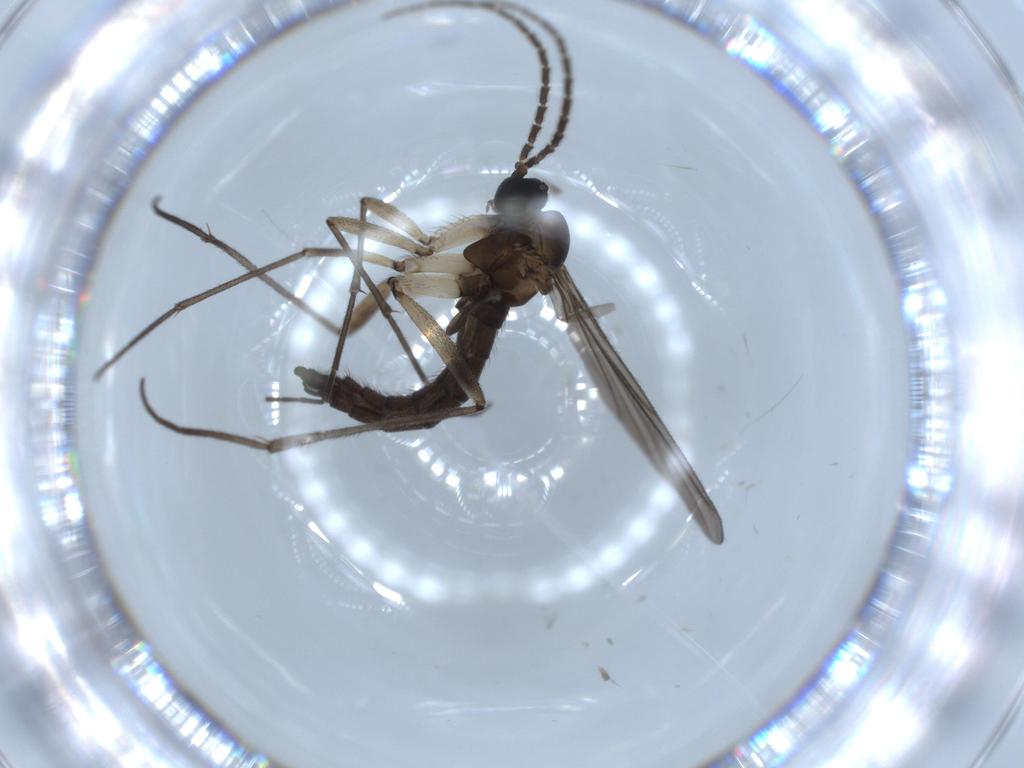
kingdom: Animalia
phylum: Arthropoda
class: Insecta
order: Diptera
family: Sciaridae
